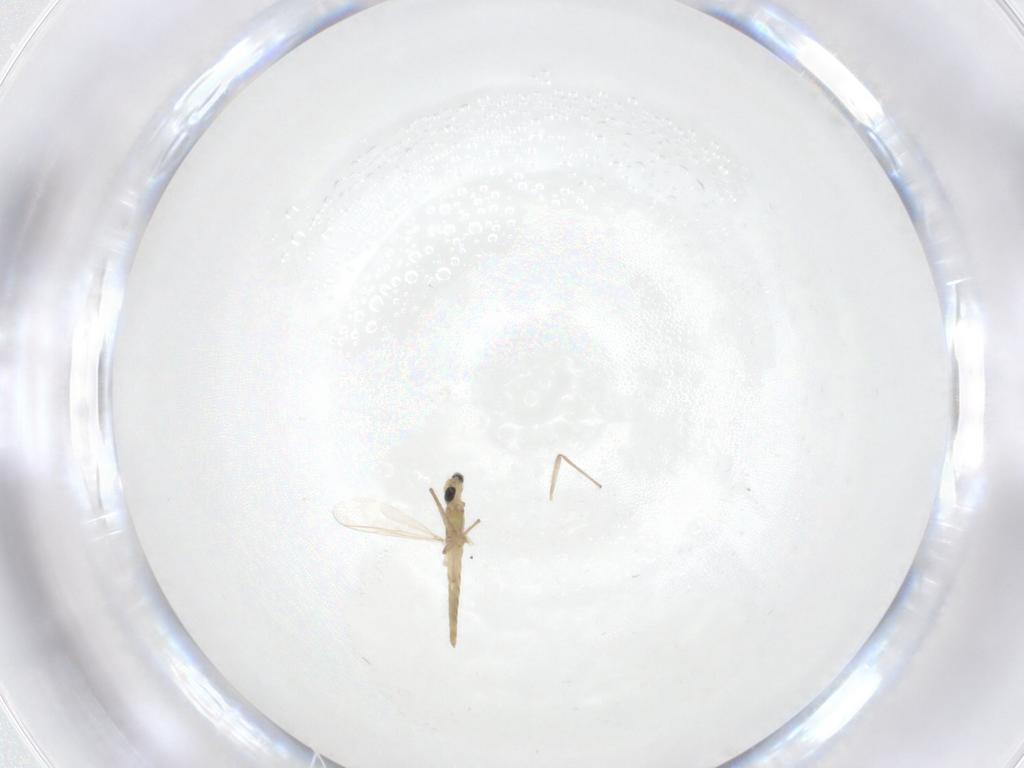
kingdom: Animalia
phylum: Arthropoda
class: Insecta
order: Diptera
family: Chironomidae
